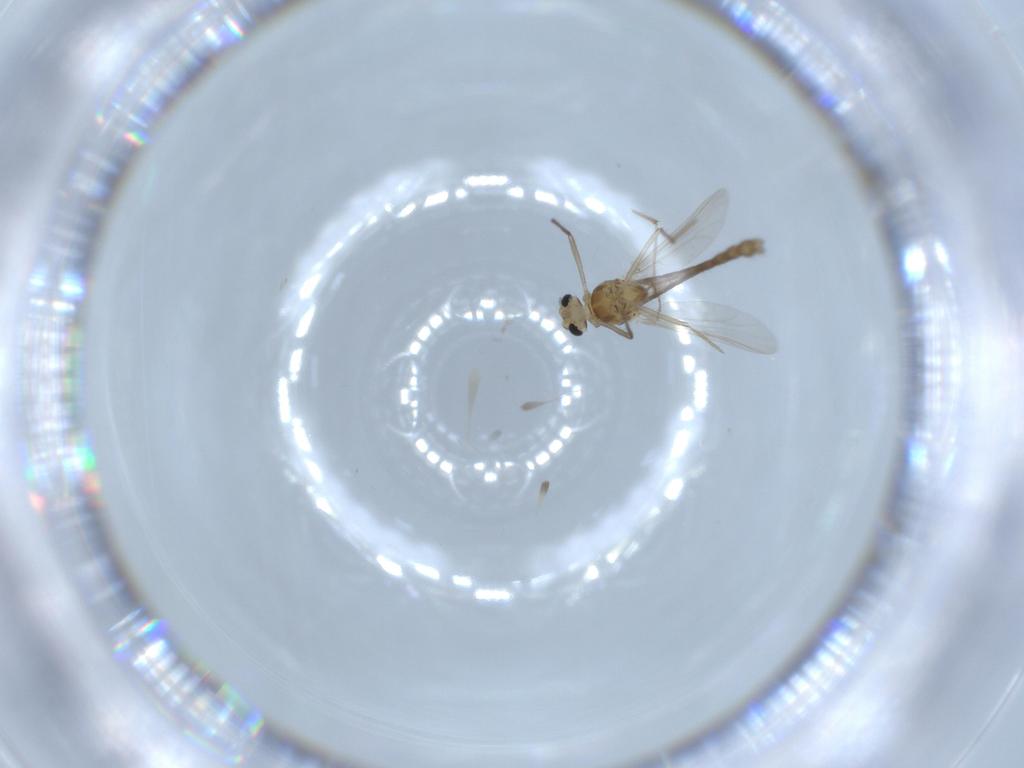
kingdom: Animalia
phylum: Arthropoda
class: Insecta
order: Diptera
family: Chironomidae
